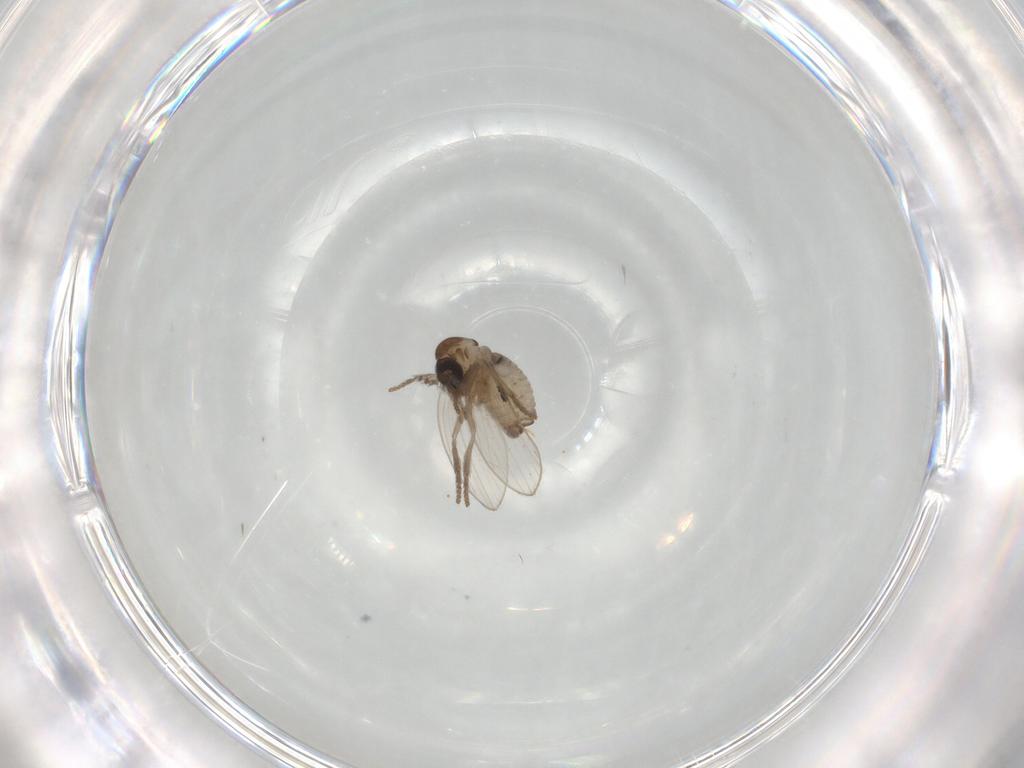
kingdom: Animalia
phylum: Arthropoda
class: Insecta
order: Diptera
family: Psychodidae
